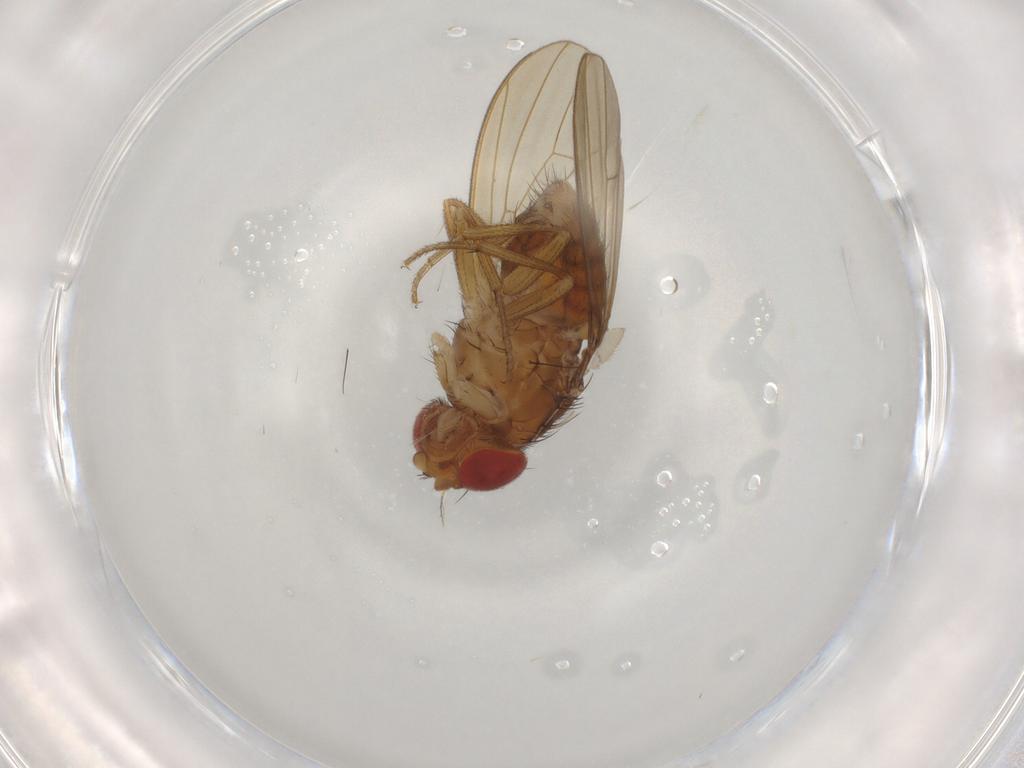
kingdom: Animalia
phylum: Arthropoda
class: Insecta
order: Diptera
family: Drosophilidae
